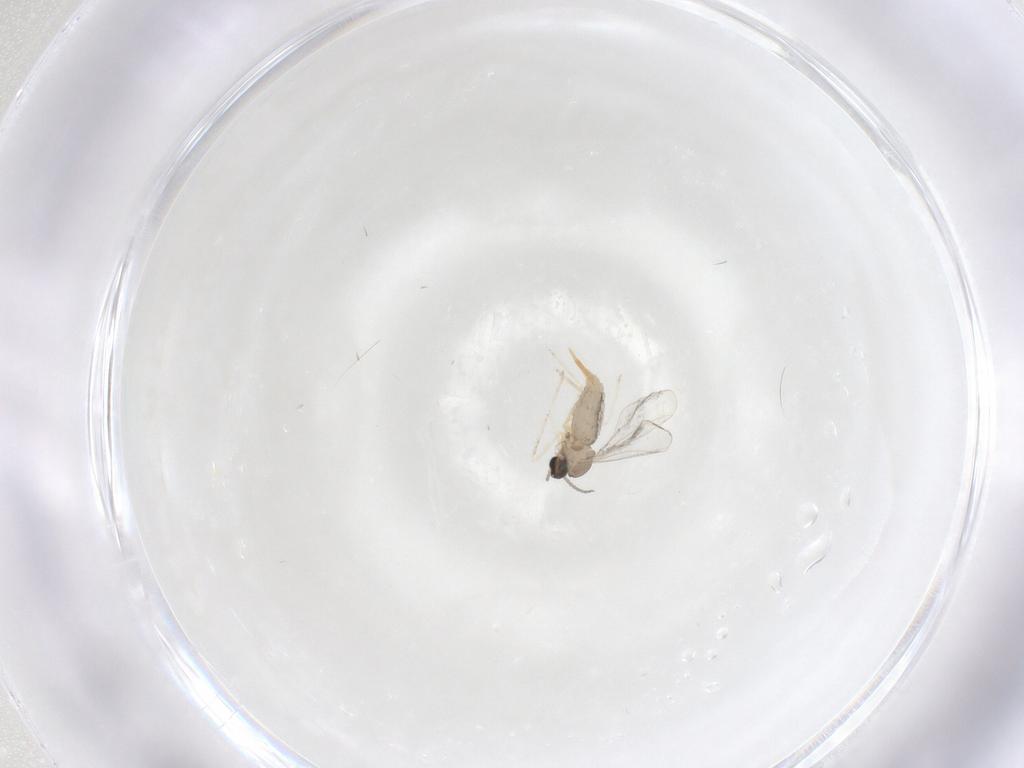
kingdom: Animalia
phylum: Arthropoda
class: Insecta
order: Diptera
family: Cecidomyiidae
